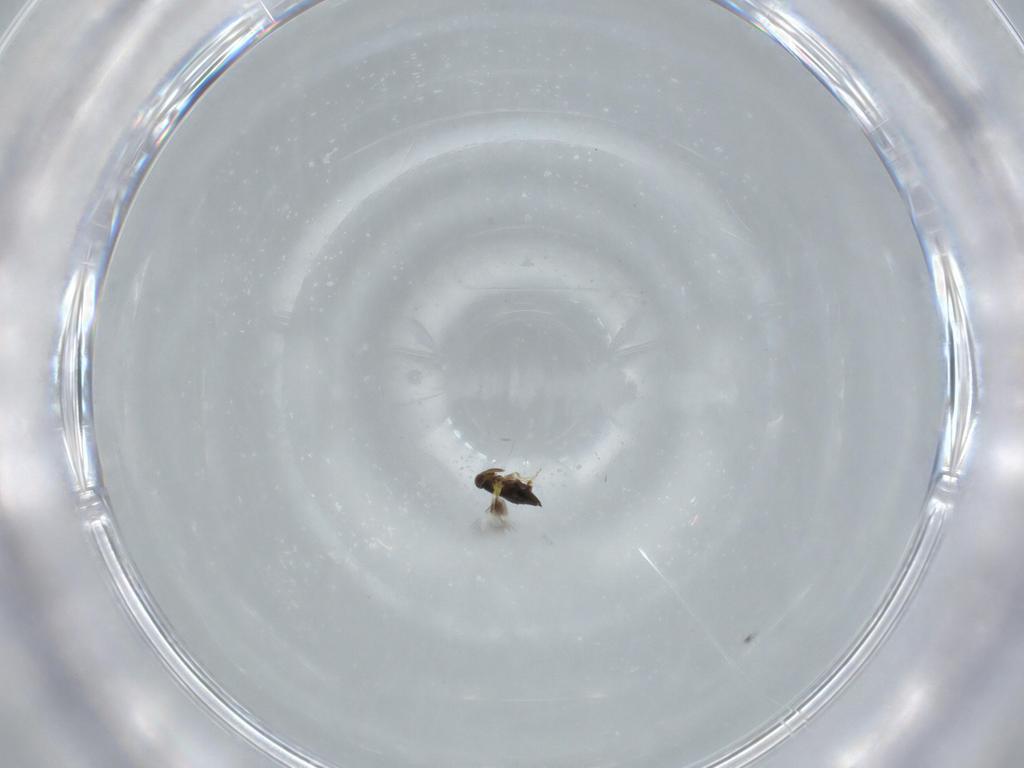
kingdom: Animalia
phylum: Arthropoda
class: Insecta
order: Hymenoptera
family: Signiphoridae
